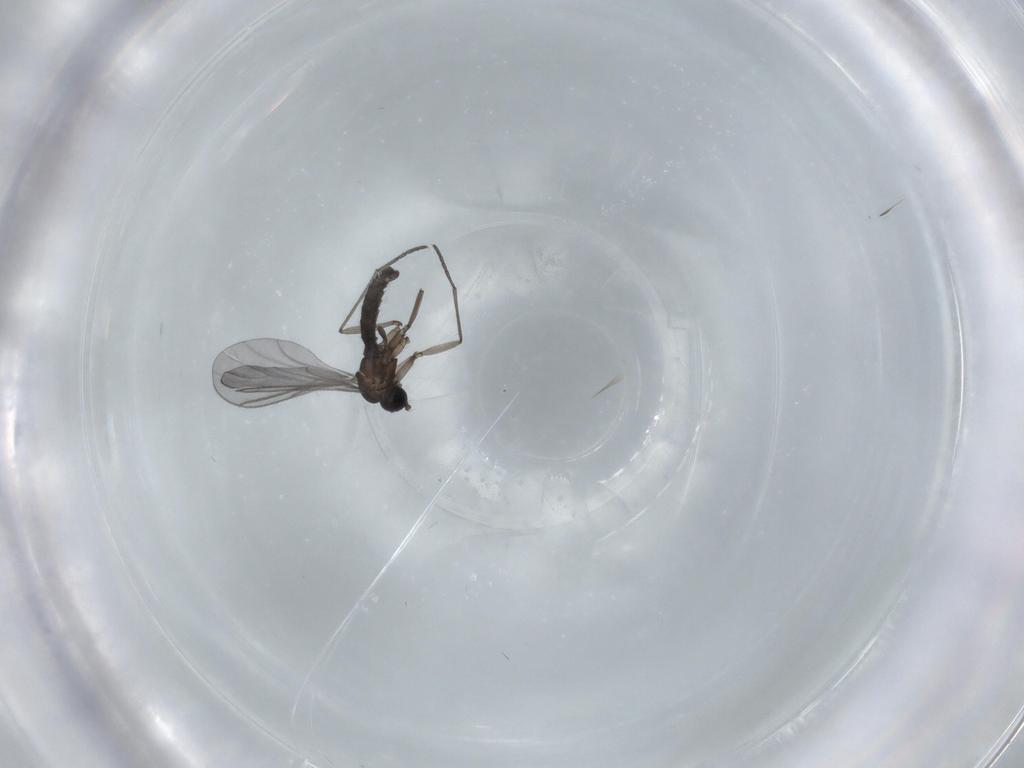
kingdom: Animalia
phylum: Arthropoda
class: Insecta
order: Diptera
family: Sciaridae
